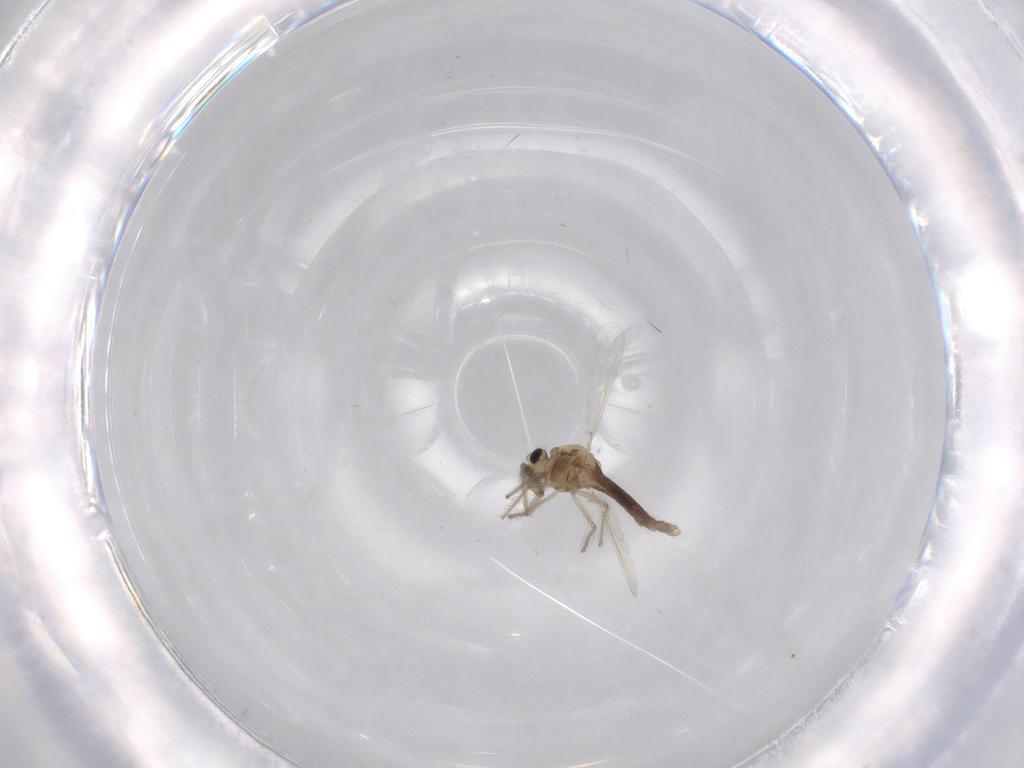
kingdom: Animalia
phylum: Arthropoda
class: Insecta
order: Diptera
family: Chironomidae
